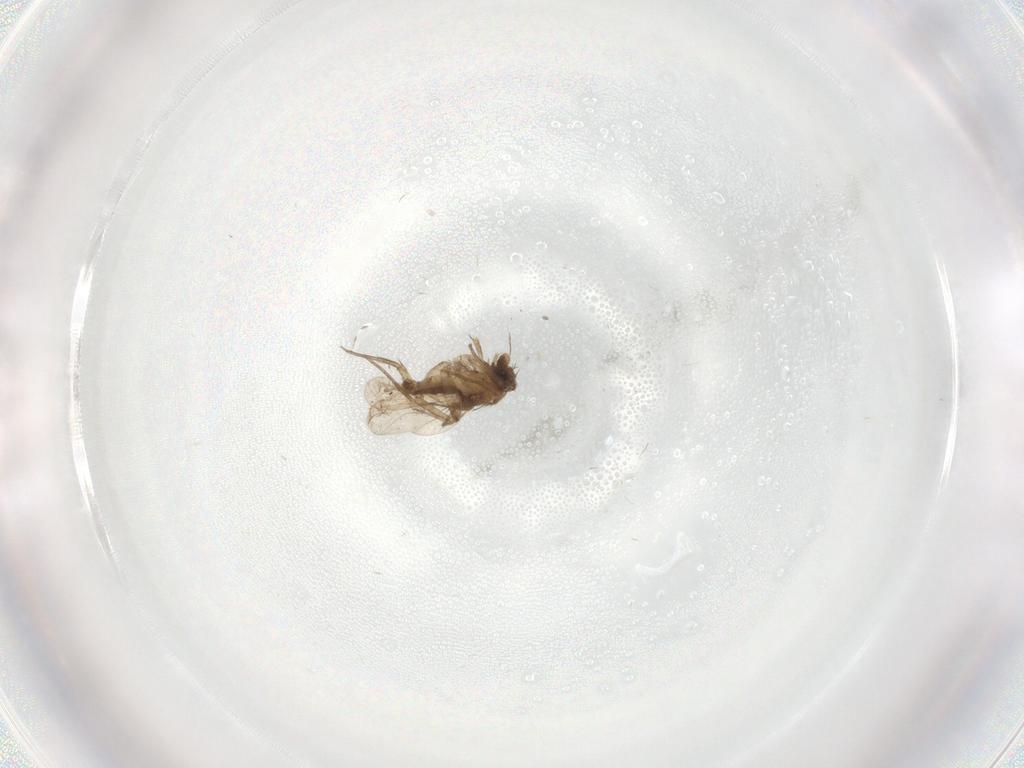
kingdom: Animalia
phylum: Arthropoda
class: Insecta
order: Diptera
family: Phoridae
